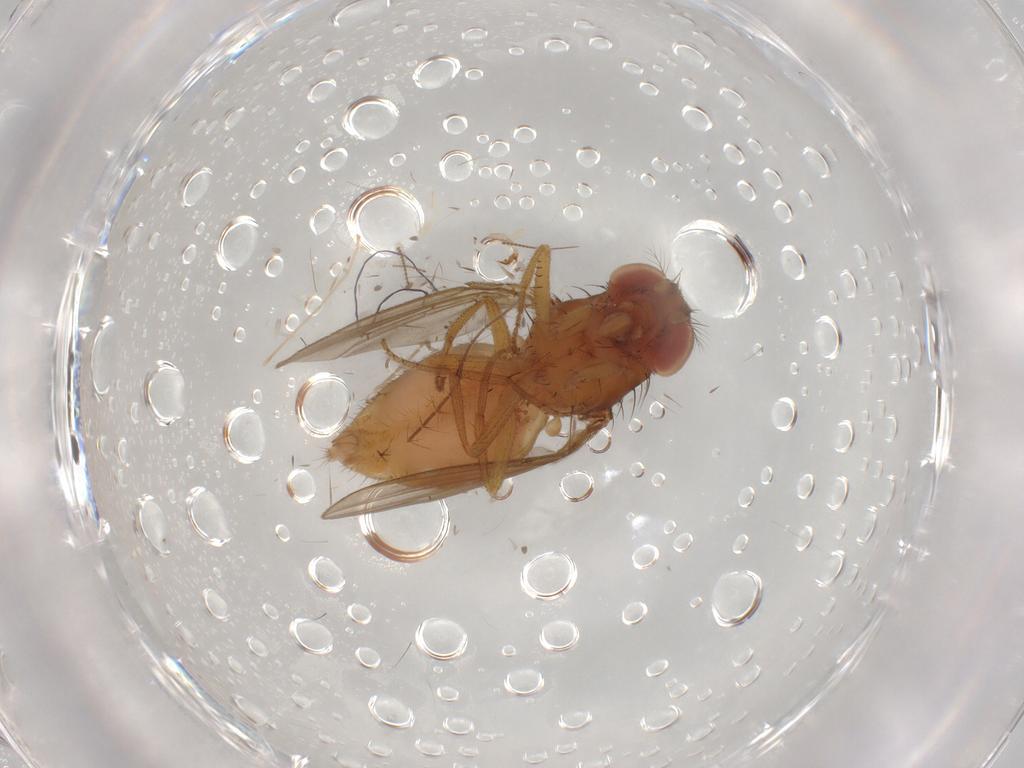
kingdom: Animalia
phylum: Arthropoda
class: Insecta
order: Diptera
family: Drosophilidae
